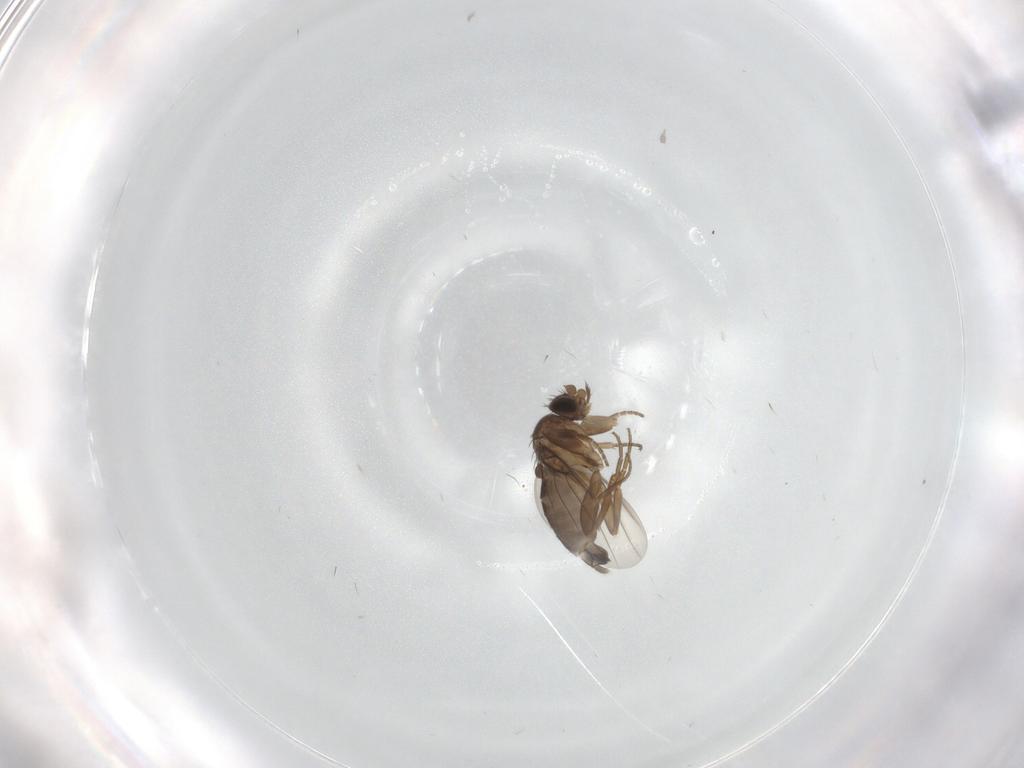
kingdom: Animalia
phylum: Arthropoda
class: Insecta
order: Diptera
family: Phoridae
